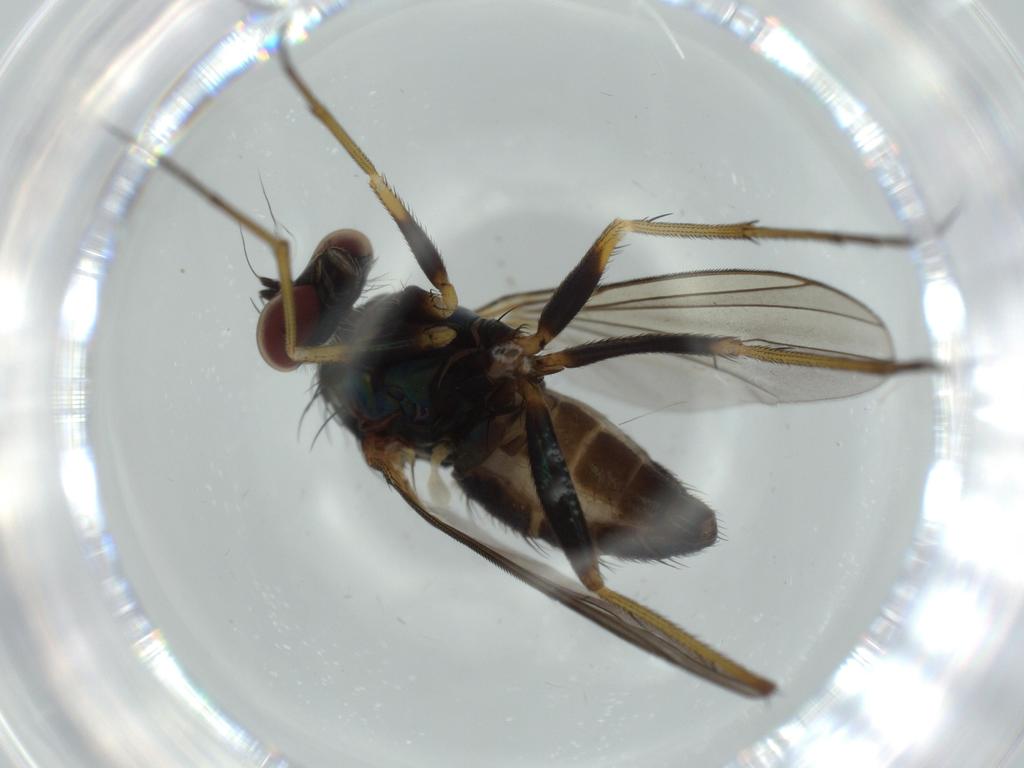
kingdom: Animalia
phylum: Arthropoda
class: Insecta
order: Diptera
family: Dolichopodidae
